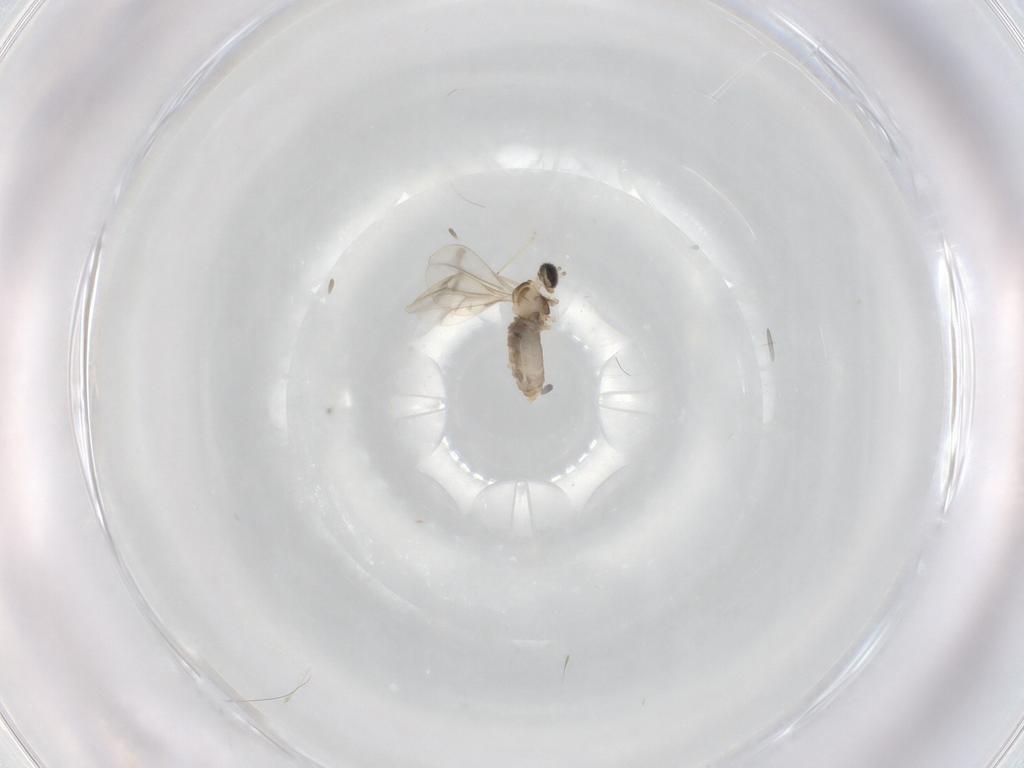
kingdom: Animalia
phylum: Arthropoda
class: Insecta
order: Diptera
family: Cecidomyiidae
